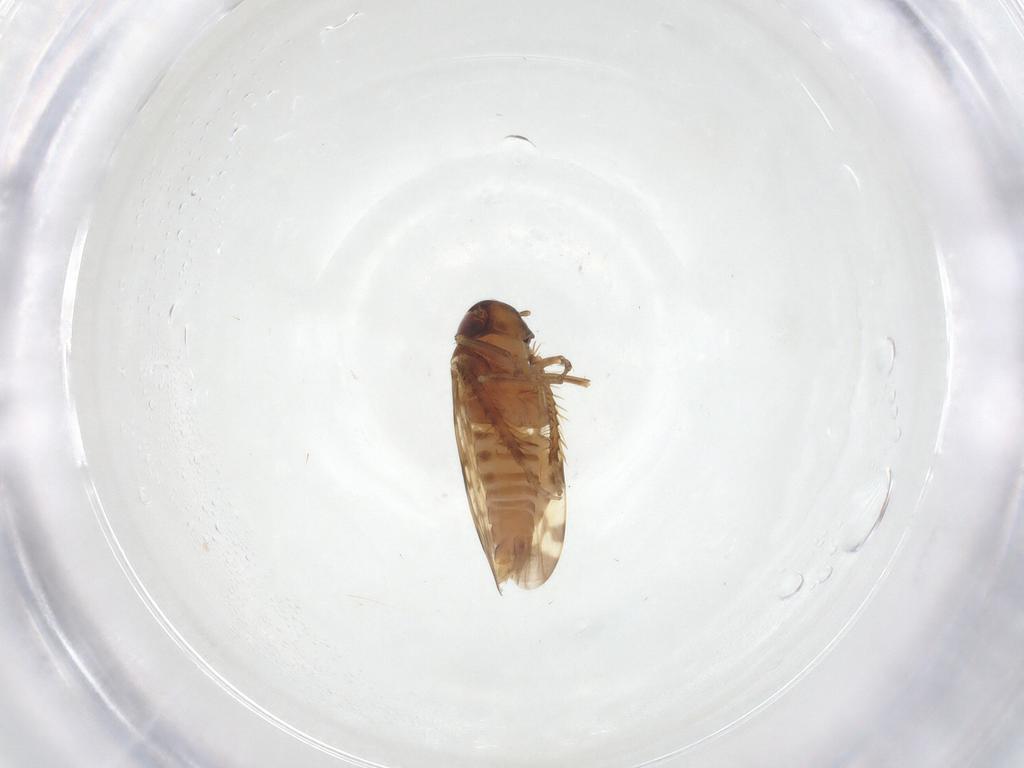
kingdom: Animalia
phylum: Arthropoda
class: Insecta
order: Hemiptera
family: Cicadellidae
